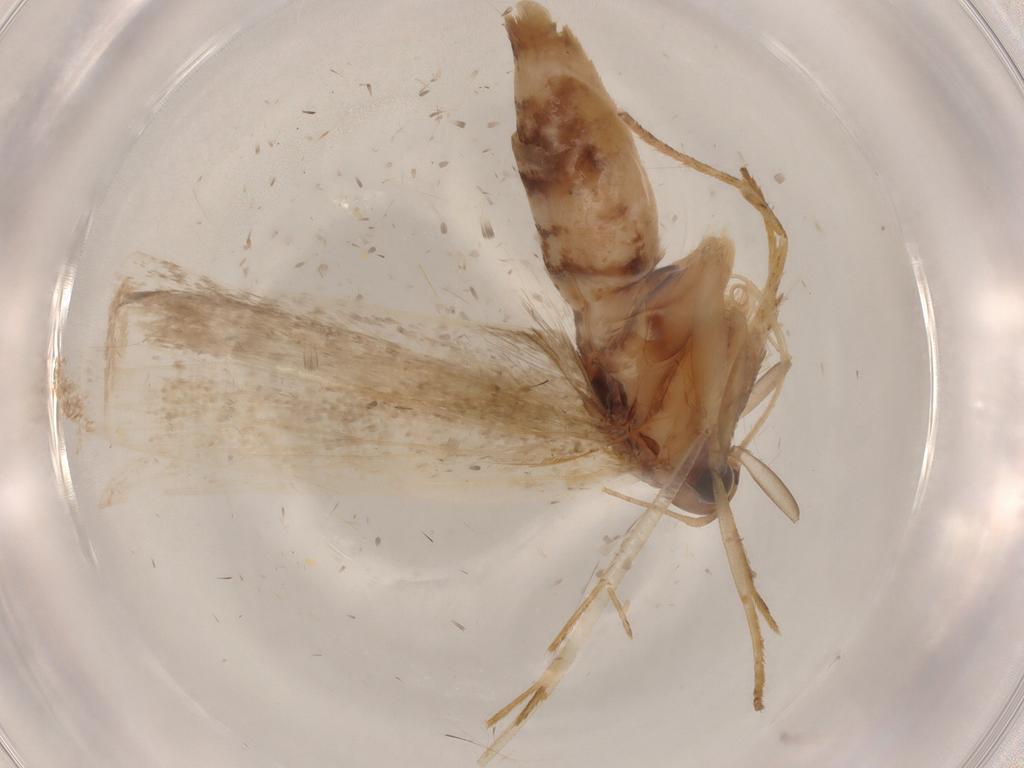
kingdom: Animalia
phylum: Arthropoda
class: Insecta
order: Lepidoptera
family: Gelechiidae
